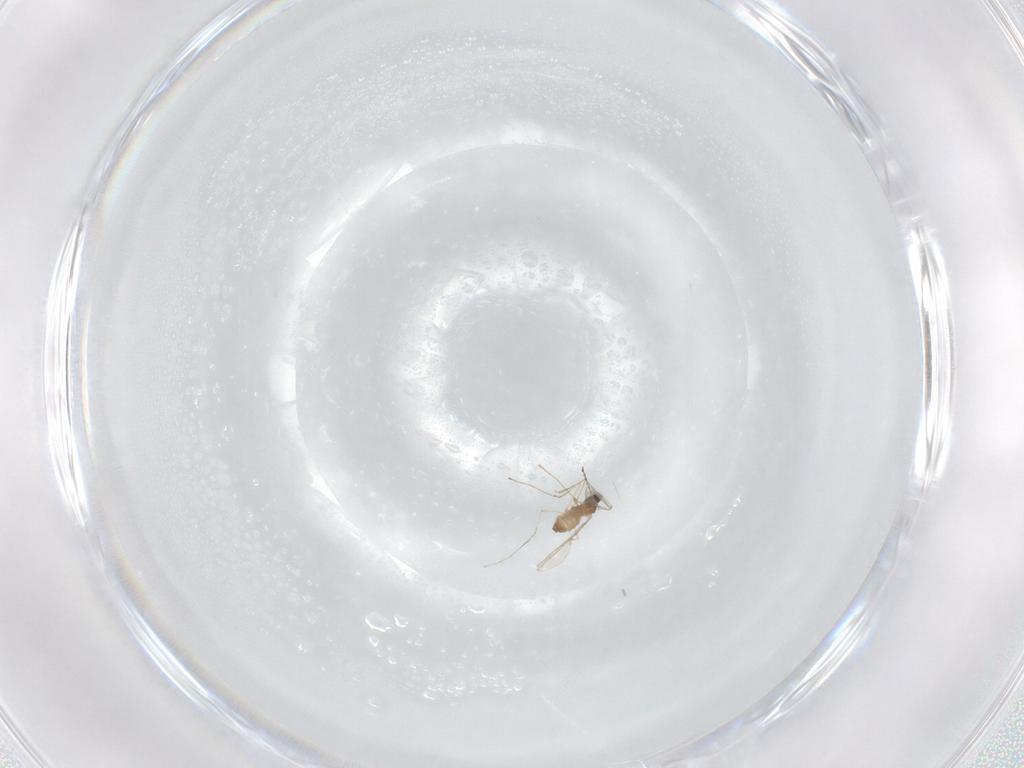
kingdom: Animalia
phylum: Arthropoda
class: Insecta
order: Diptera
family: Cecidomyiidae
